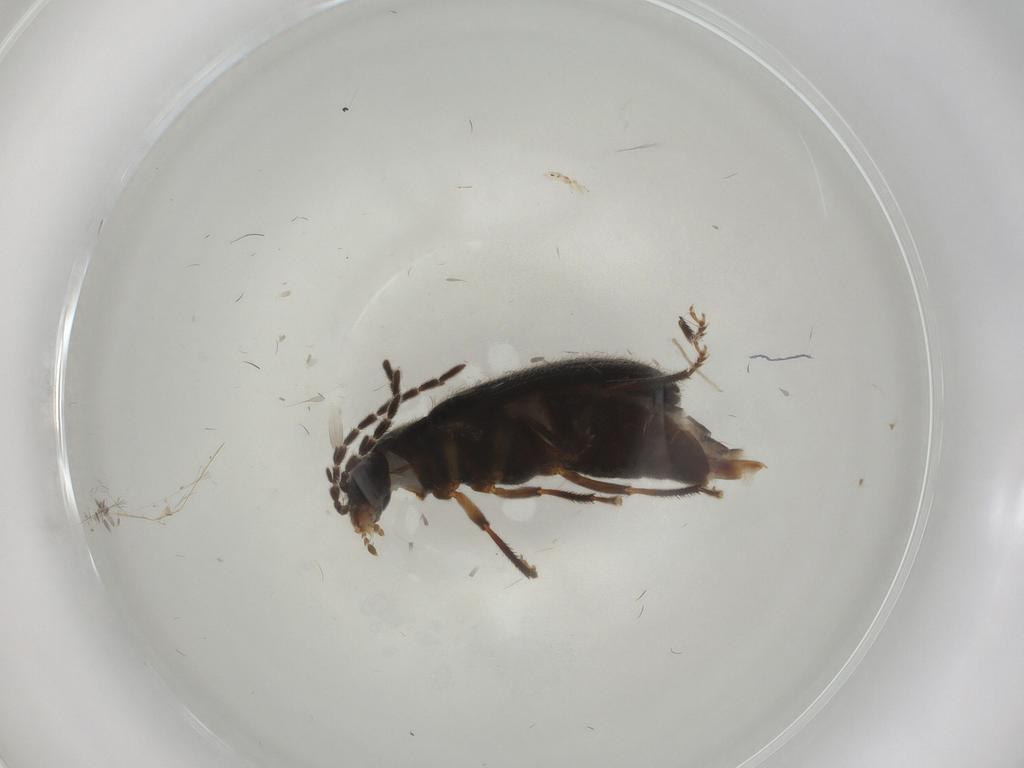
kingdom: Animalia
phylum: Arthropoda
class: Insecta
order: Coleoptera
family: Ptilodactylidae
